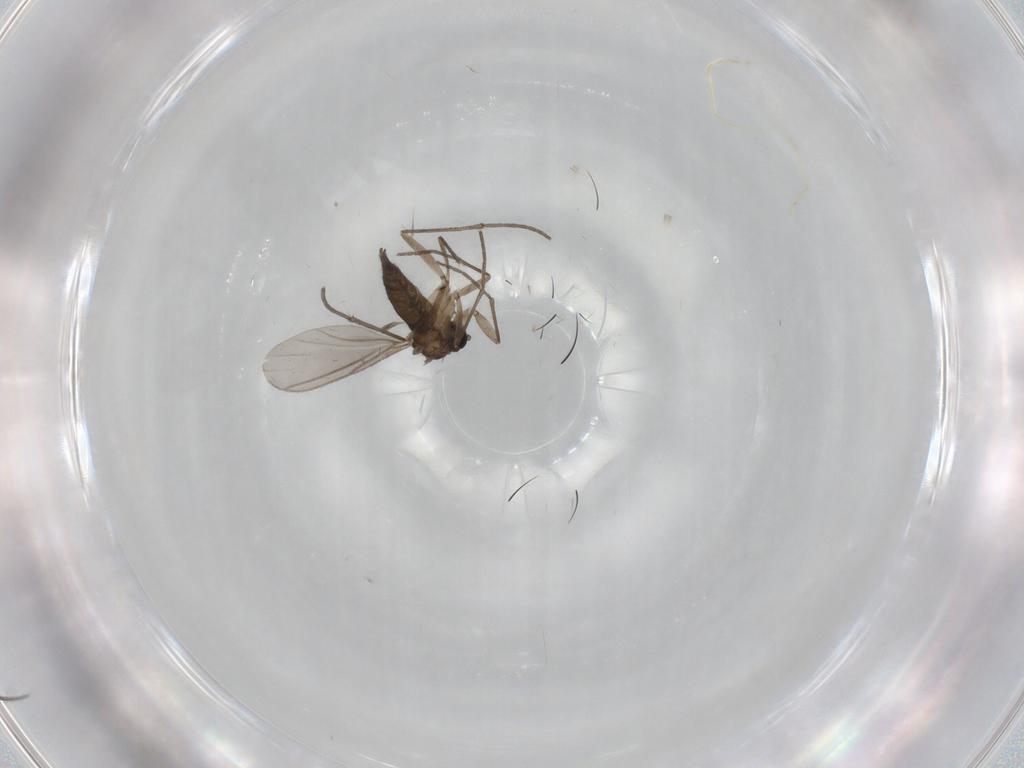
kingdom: Animalia
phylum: Arthropoda
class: Insecta
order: Diptera
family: Sciaridae
